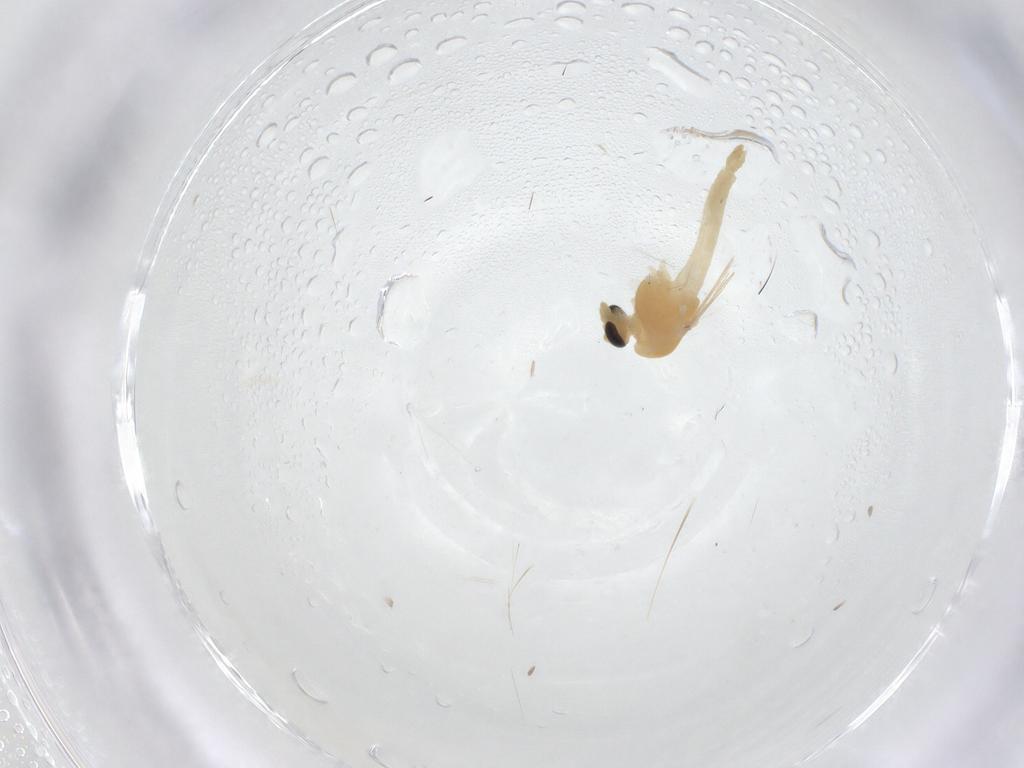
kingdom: Animalia
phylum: Arthropoda
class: Insecta
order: Diptera
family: Chironomidae
